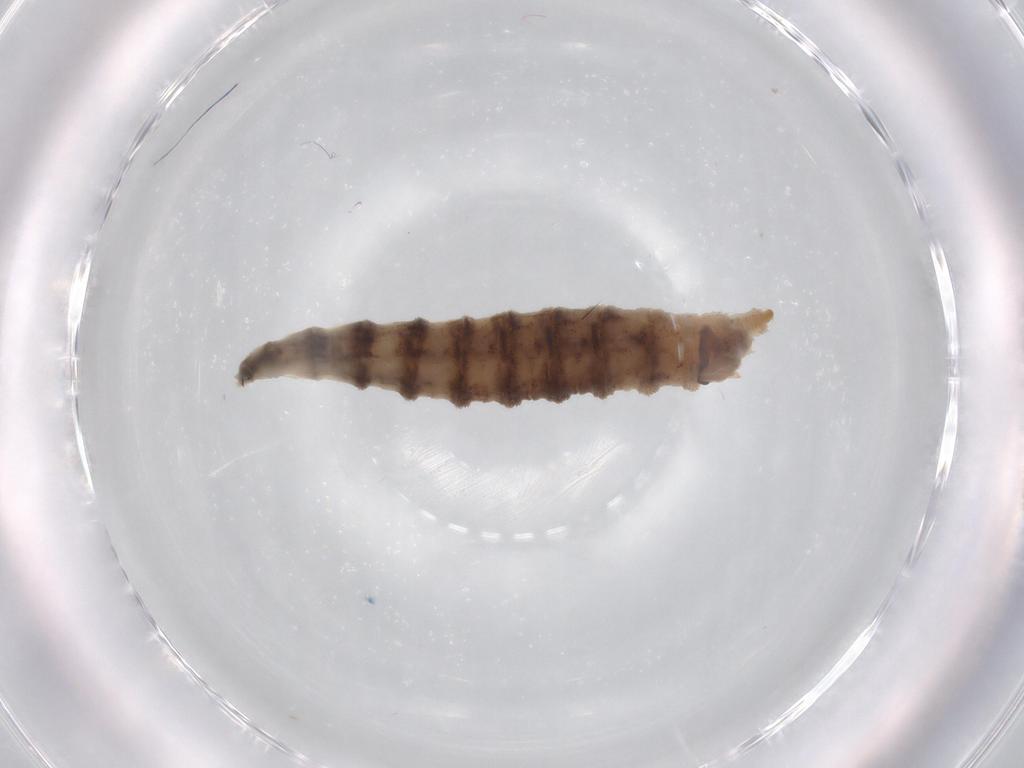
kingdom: Animalia
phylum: Arthropoda
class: Insecta
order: Diptera
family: Drosophilidae
